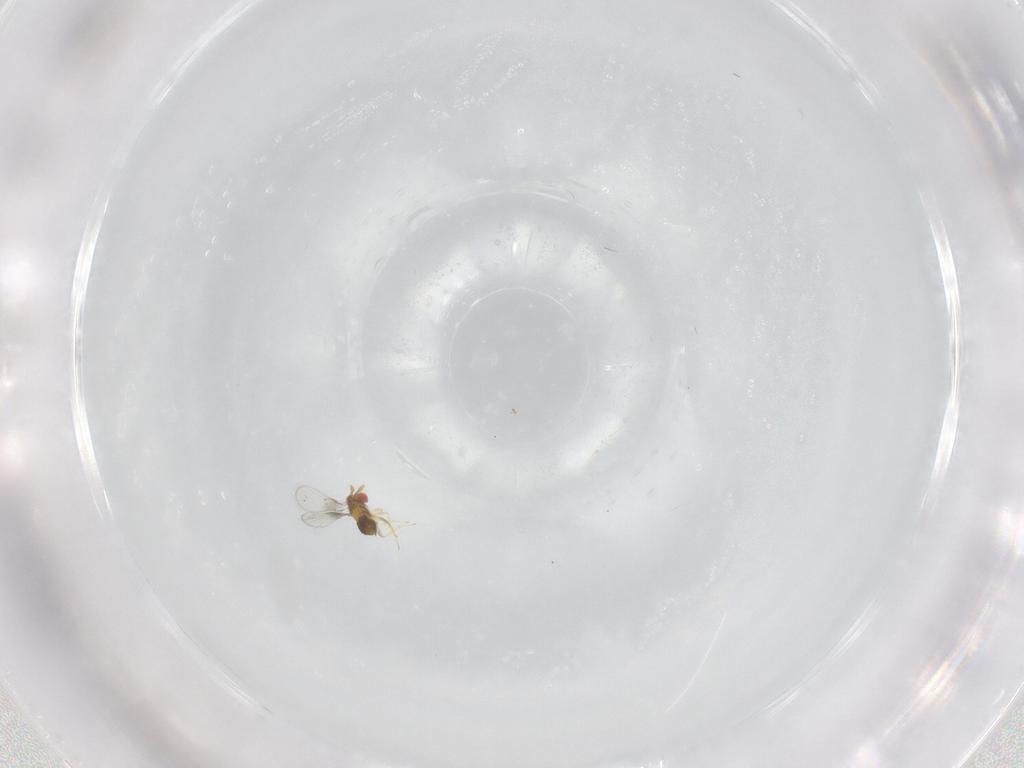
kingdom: Animalia
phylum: Arthropoda
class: Insecta
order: Hymenoptera
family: Trichogrammatidae
